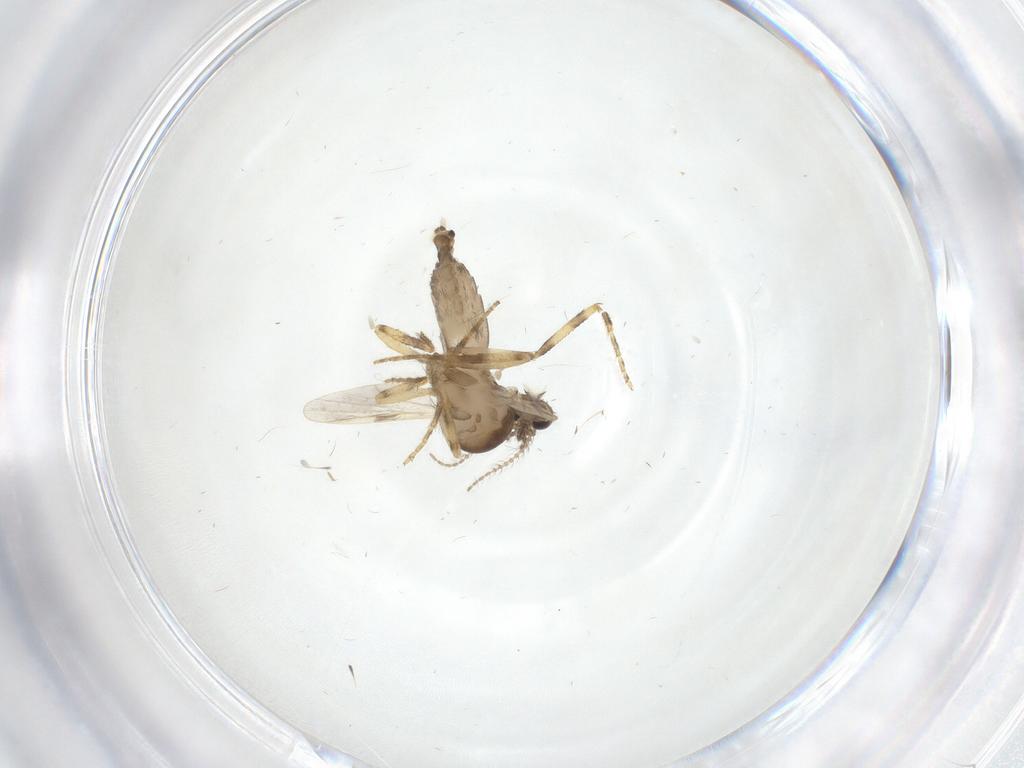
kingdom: Animalia
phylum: Arthropoda
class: Insecta
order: Diptera
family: Ceratopogonidae
